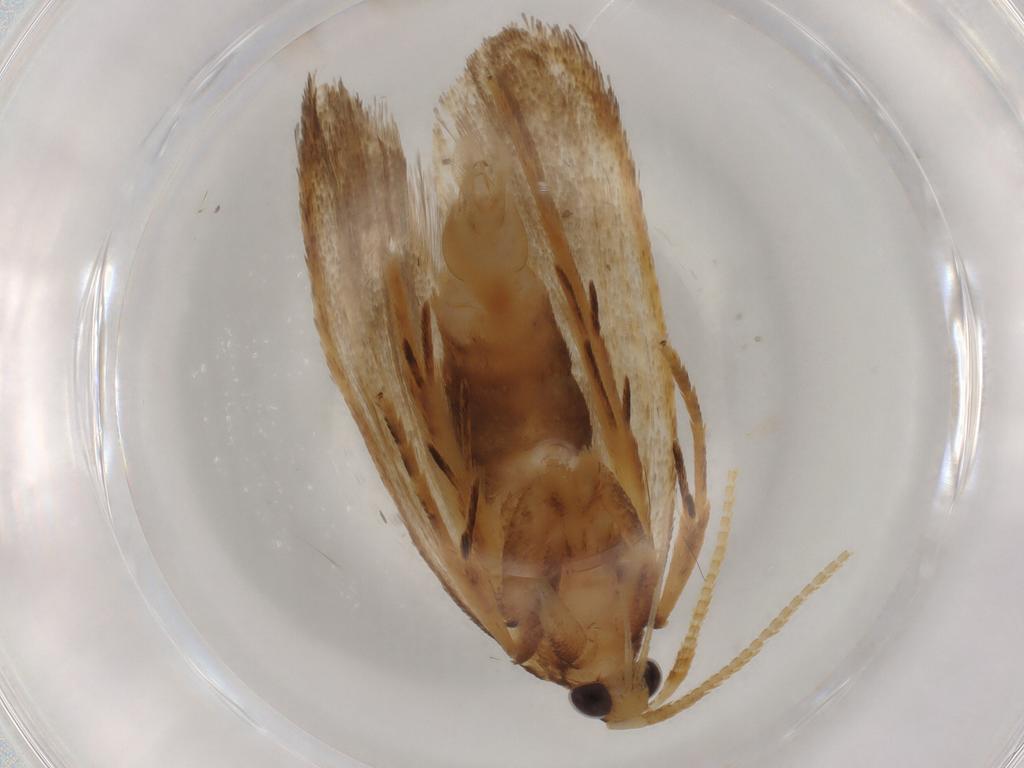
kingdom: Animalia
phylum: Arthropoda
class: Insecta
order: Lepidoptera
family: Lecithoceridae
